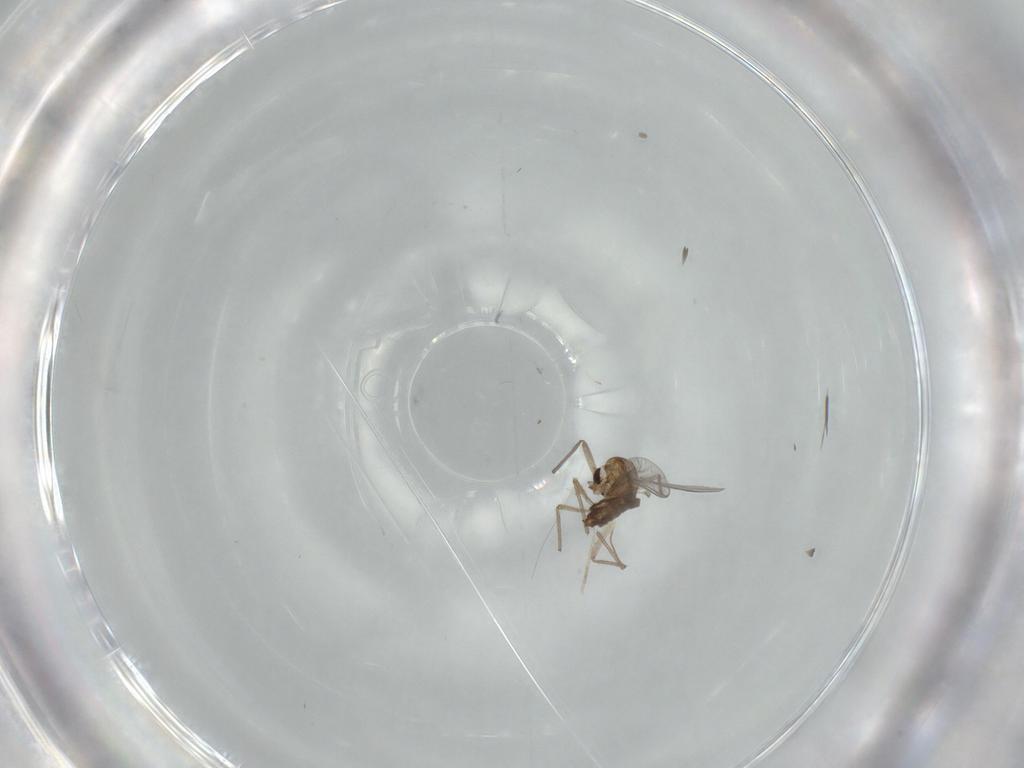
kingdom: Animalia
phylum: Arthropoda
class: Insecta
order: Diptera
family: Chironomidae
